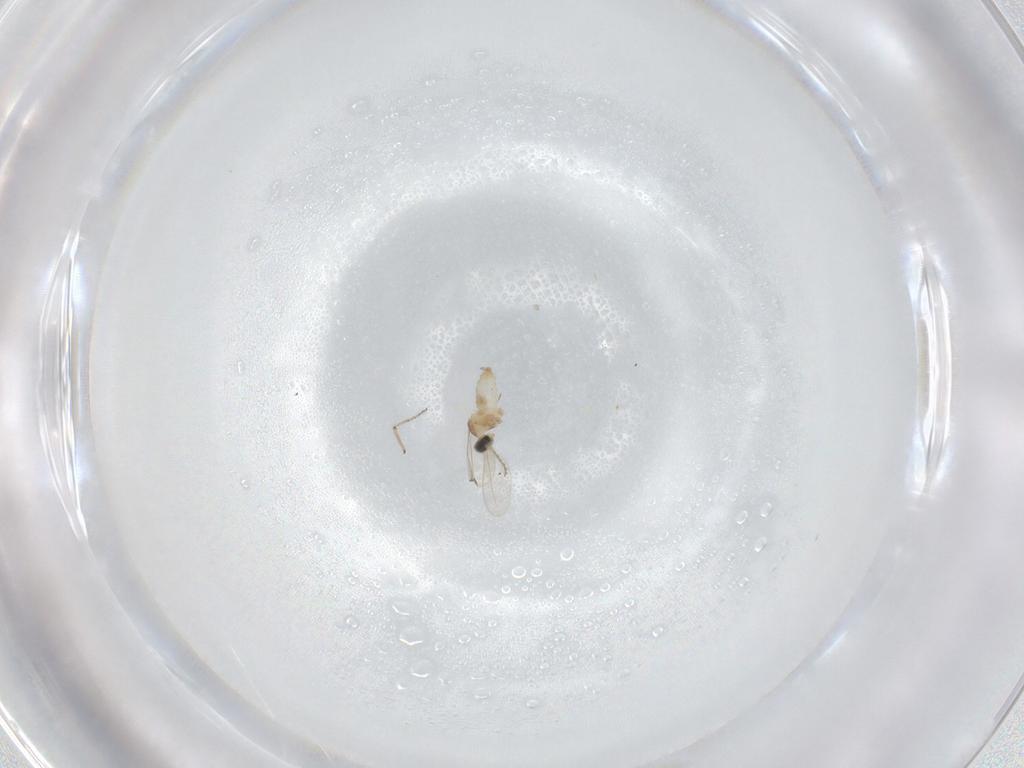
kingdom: Animalia
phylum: Arthropoda
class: Insecta
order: Diptera
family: Cecidomyiidae
